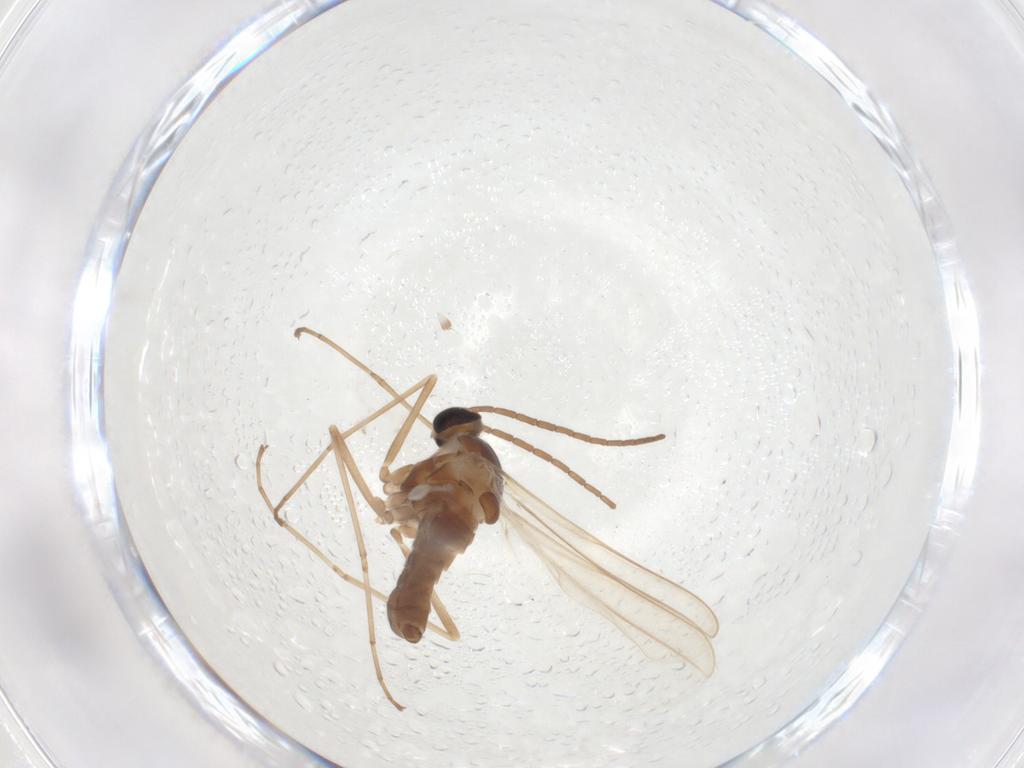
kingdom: Animalia
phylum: Arthropoda
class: Insecta
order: Diptera
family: Cecidomyiidae
